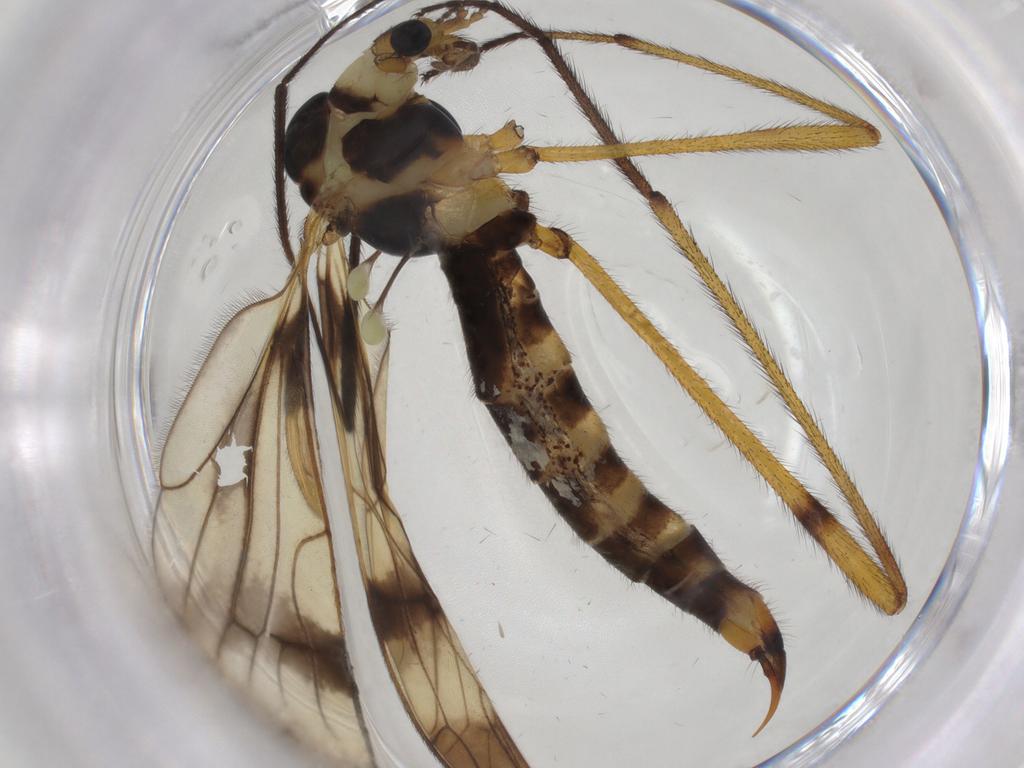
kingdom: Animalia
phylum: Arthropoda
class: Insecta
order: Diptera
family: Limoniidae
